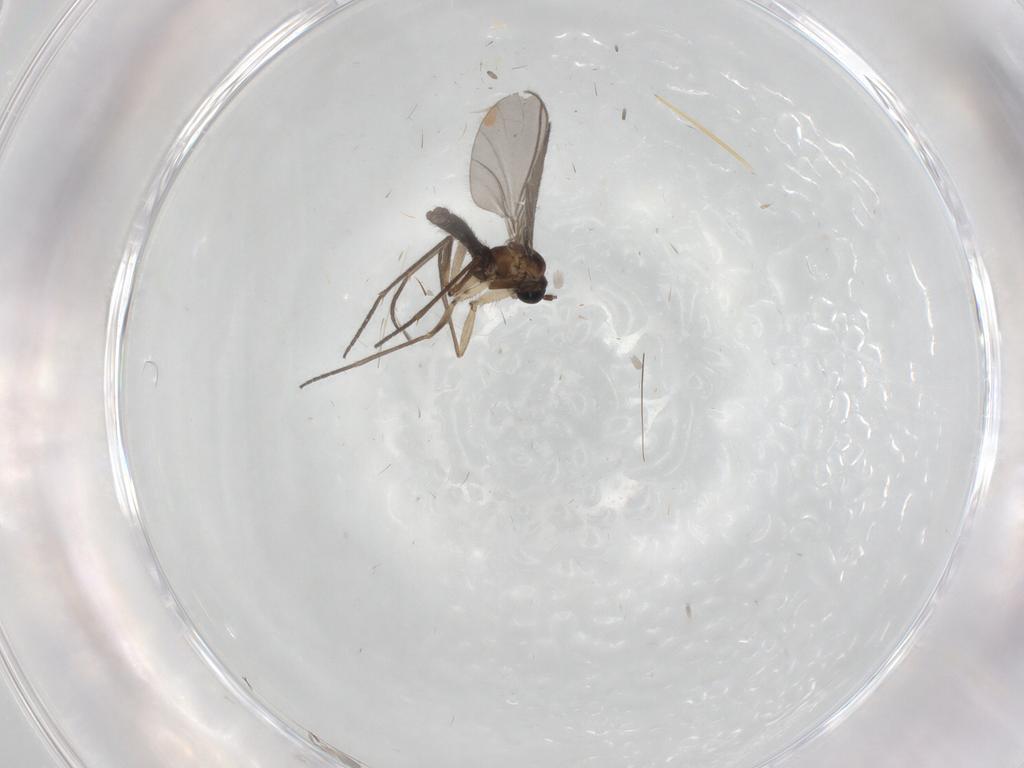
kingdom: Animalia
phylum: Arthropoda
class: Insecta
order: Diptera
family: Sciaridae
